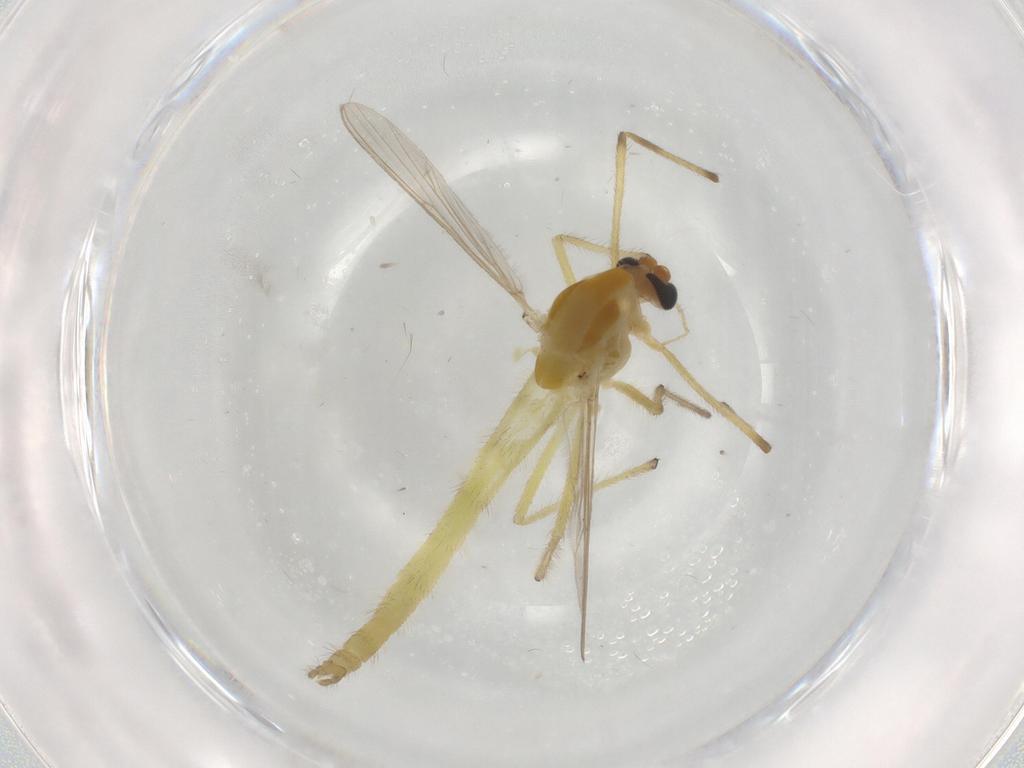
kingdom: Animalia
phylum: Arthropoda
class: Insecta
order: Diptera
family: Chironomidae
